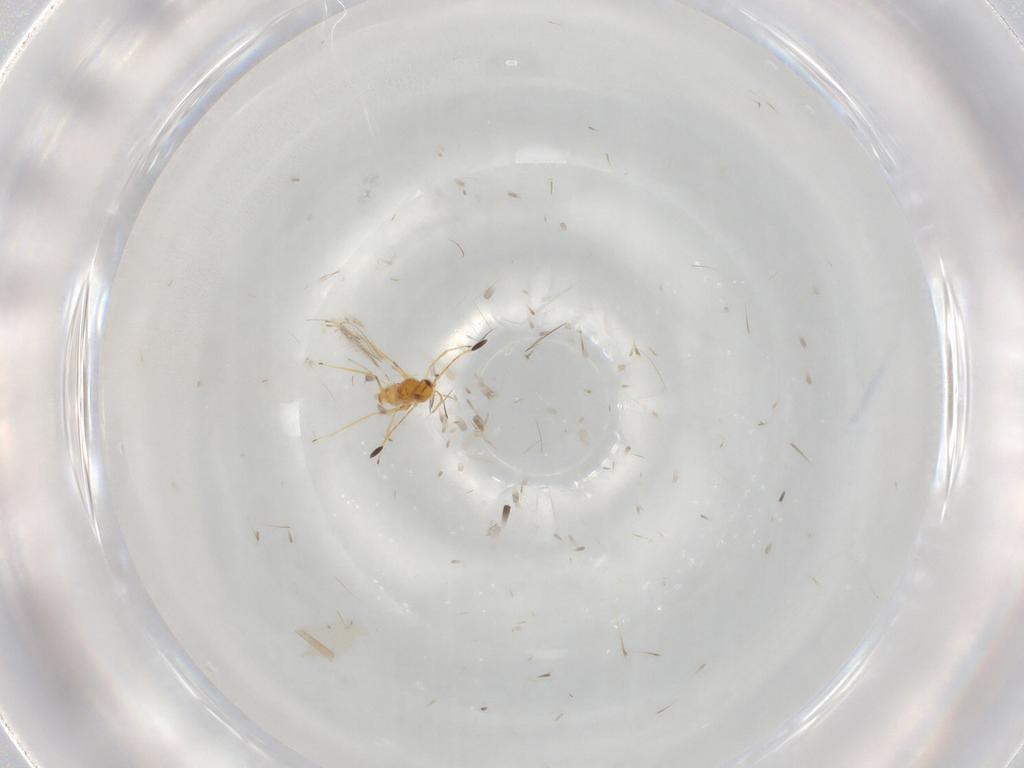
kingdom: Animalia
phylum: Arthropoda
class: Insecta
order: Hymenoptera
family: Mymaridae
